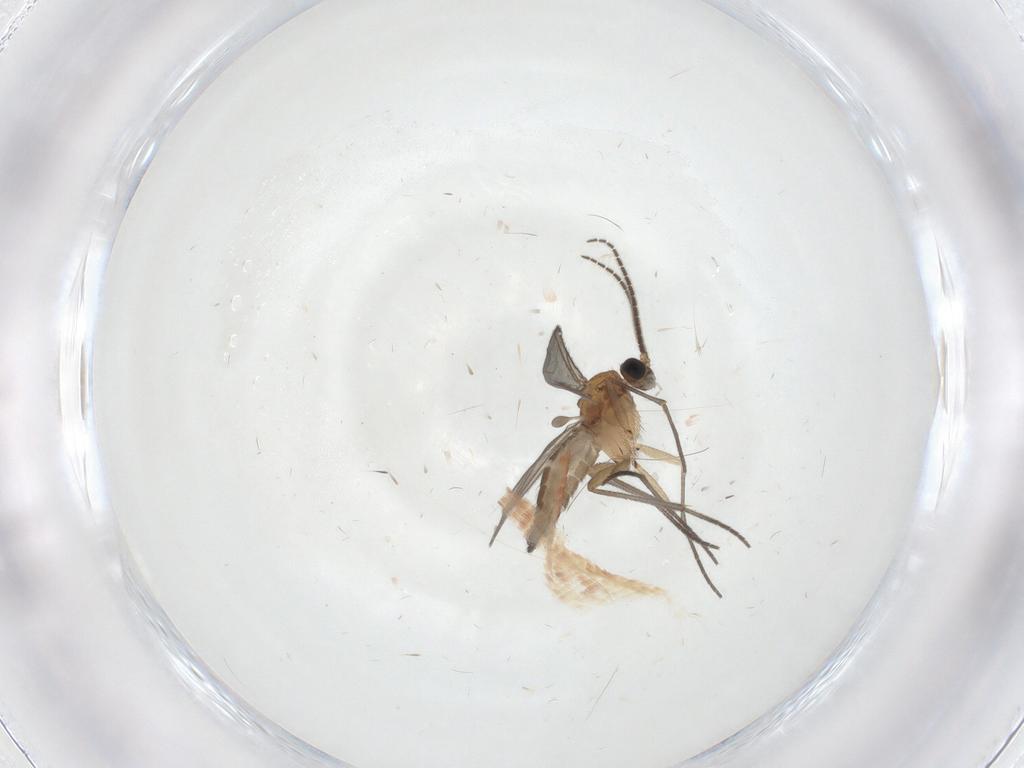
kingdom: Animalia
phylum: Arthropoda
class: Insecta
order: Diptera
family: Sciaridae
